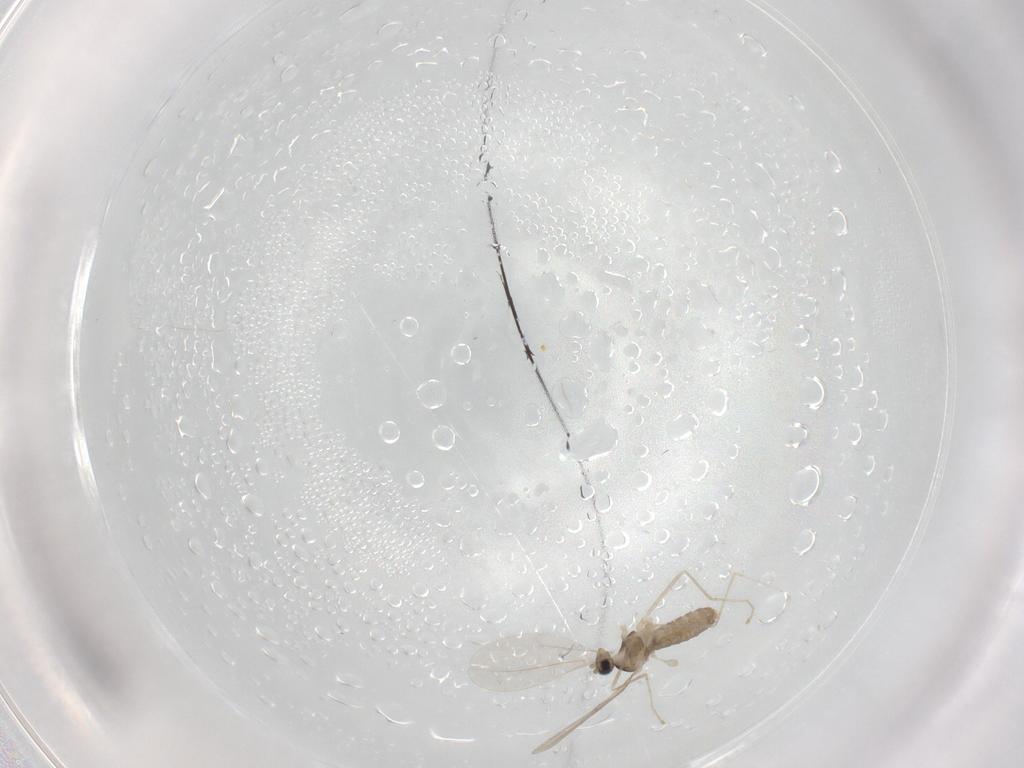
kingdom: Animalia
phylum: Arthropoda
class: Insecta
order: Diptera
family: Cecidomyiidae
